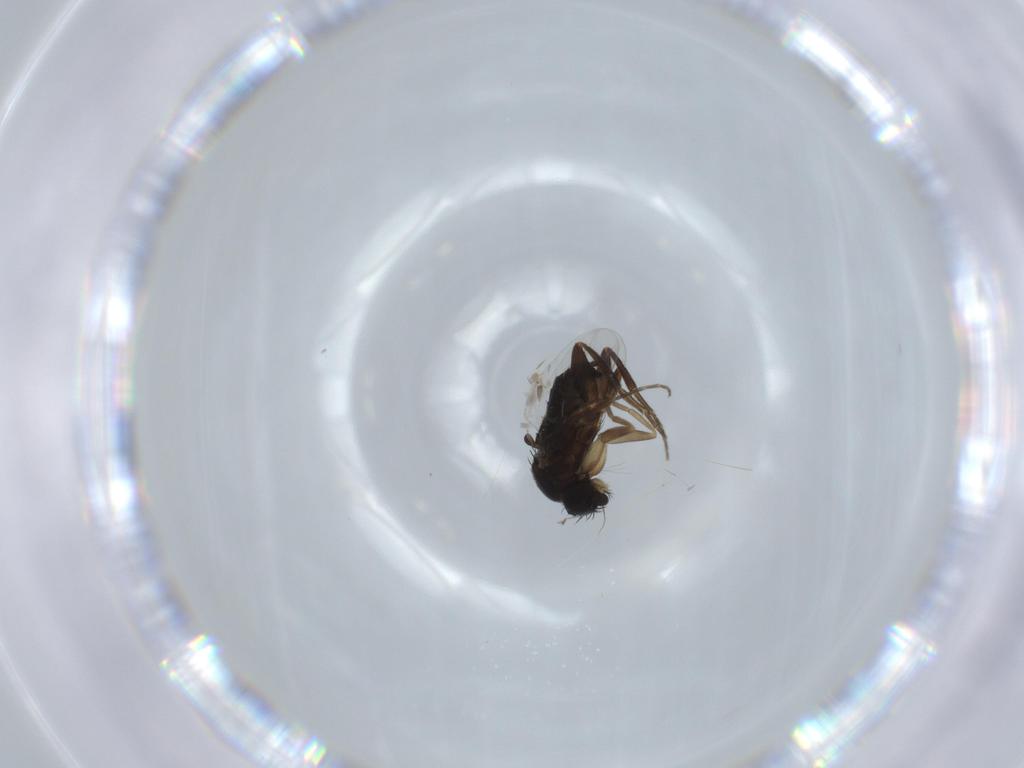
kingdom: Animalia
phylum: Arthropoda
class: Insecta
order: Diptera
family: Phoridae
